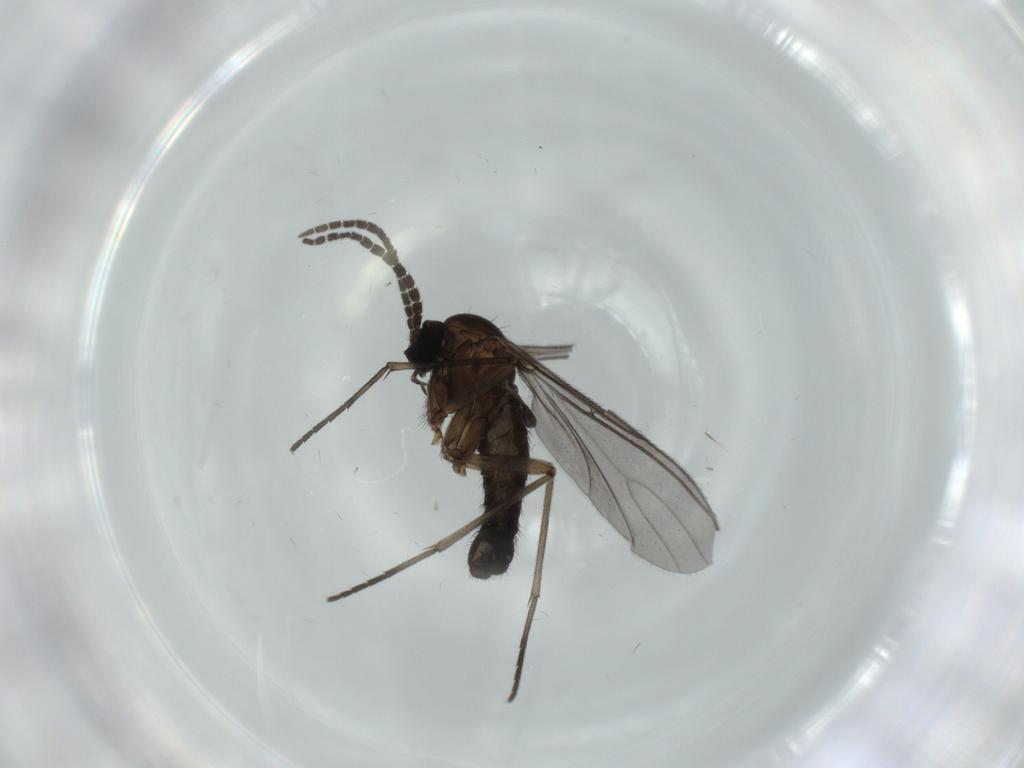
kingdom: Animalia
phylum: Arthropoda
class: Insecta
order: Diptera
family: Sciaridae
